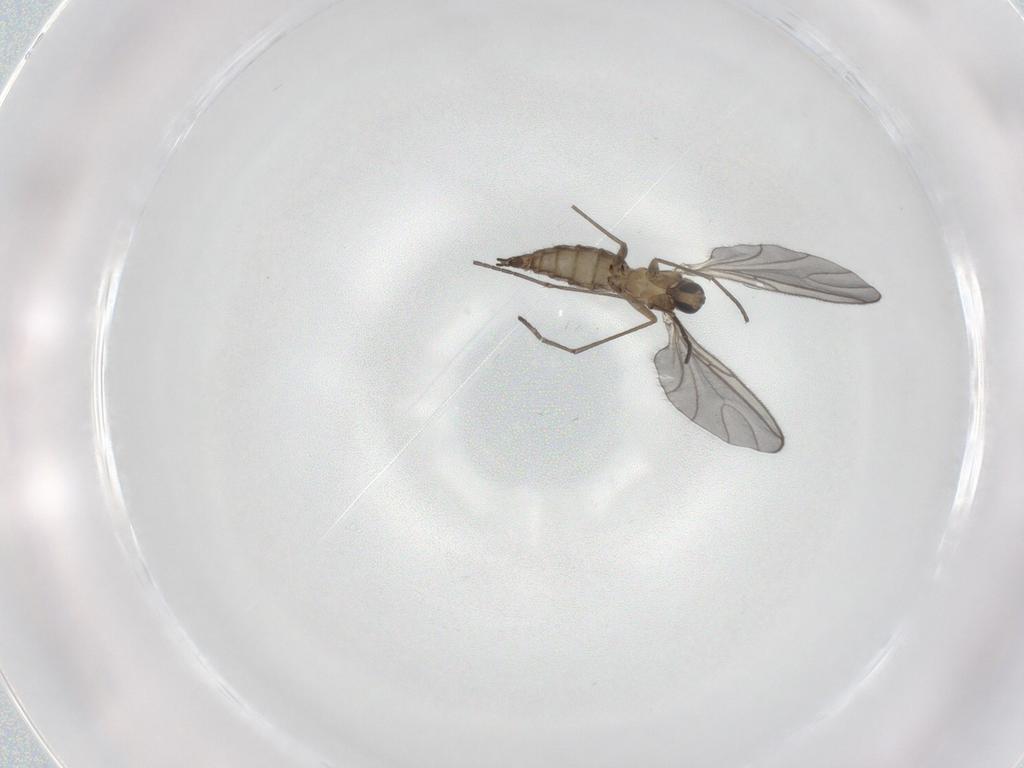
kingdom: Animalia
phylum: Arthropoda
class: Insecta
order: Diptera
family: Chironomidae
